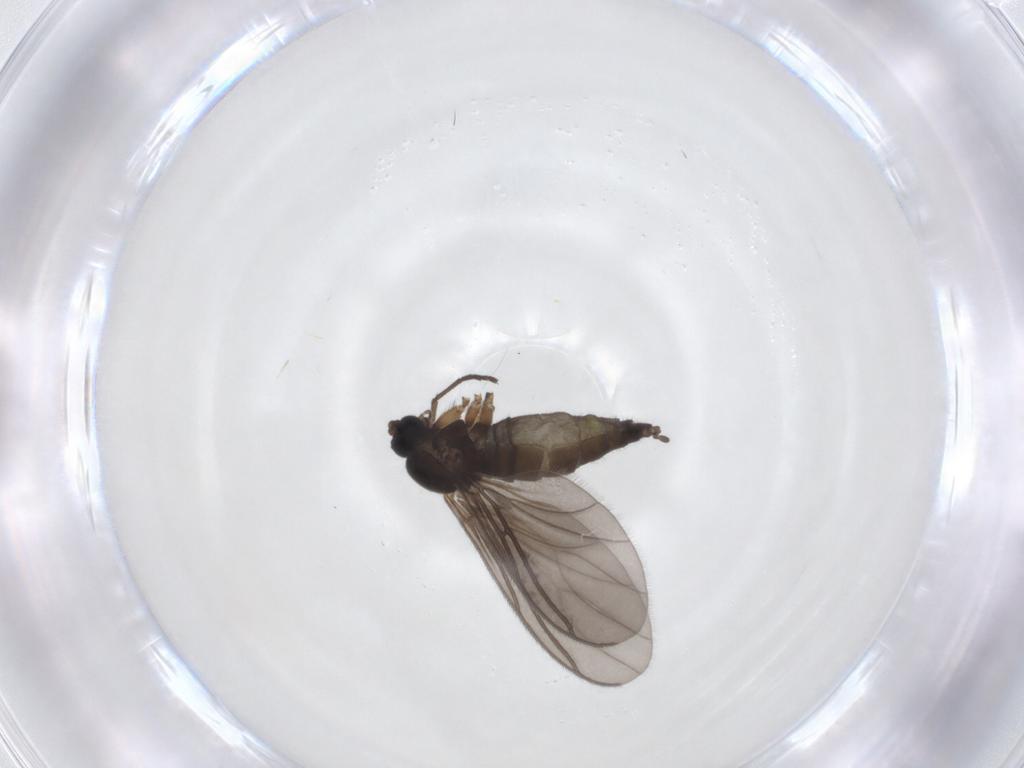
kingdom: Animalia
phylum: Arthropoda
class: Insecta
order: Diptera
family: Sciaridae
